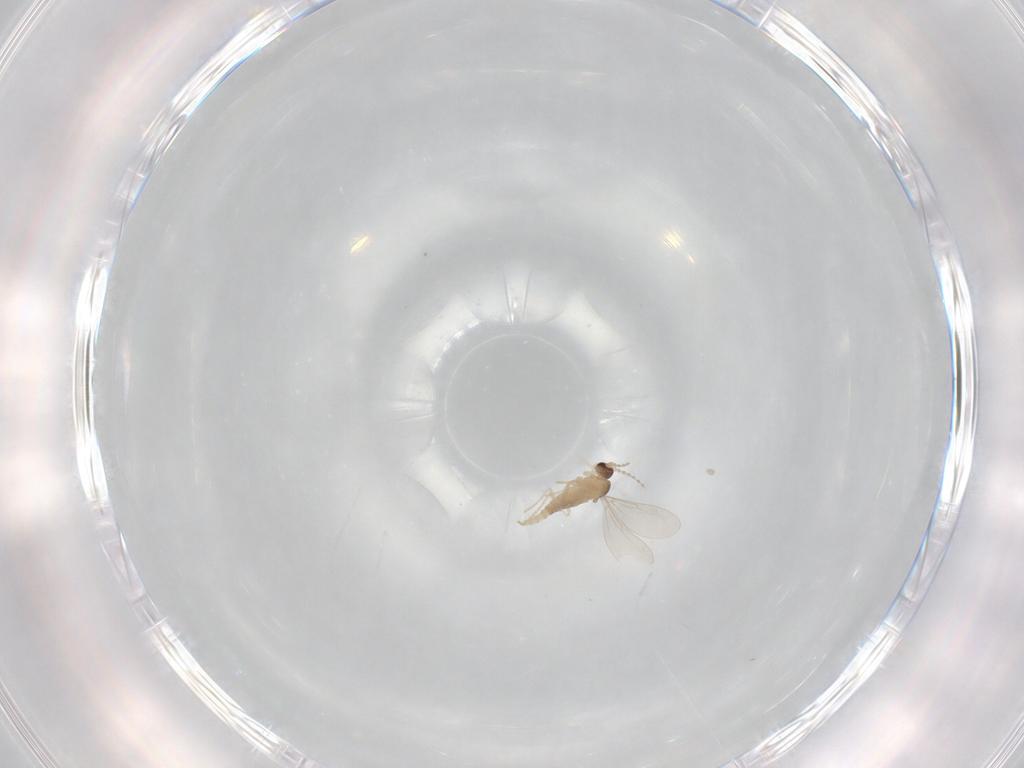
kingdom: Animalia
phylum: Arthropoda
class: Insecta
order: Diptera
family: Cecidomyiidae
